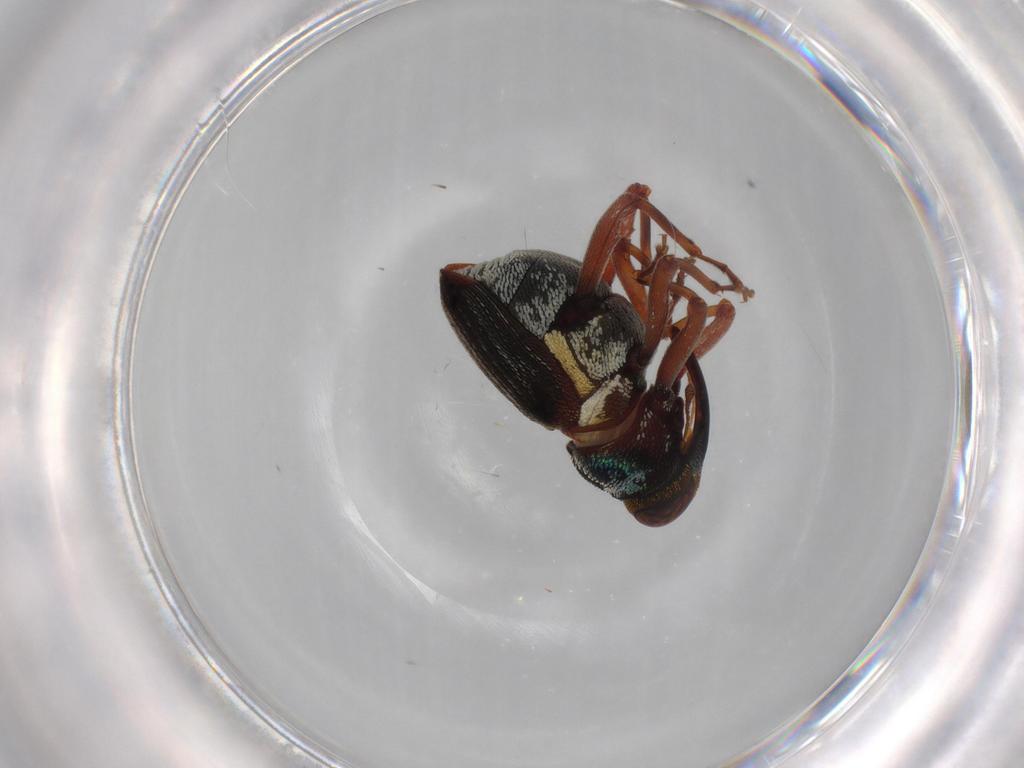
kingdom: Animalia
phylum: Arthropoda
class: Insecta
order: Coleoptera
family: Curculionidae
